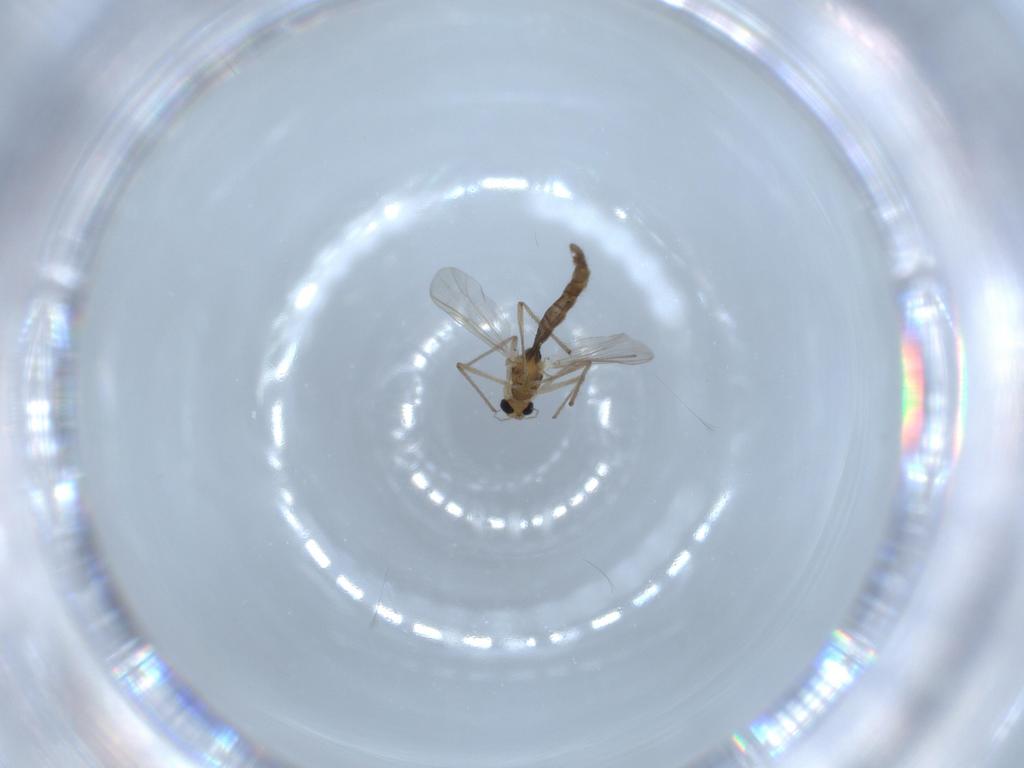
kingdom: Animalia
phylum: Arthropoda
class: Insecta
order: Diptera
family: Chironomidae
